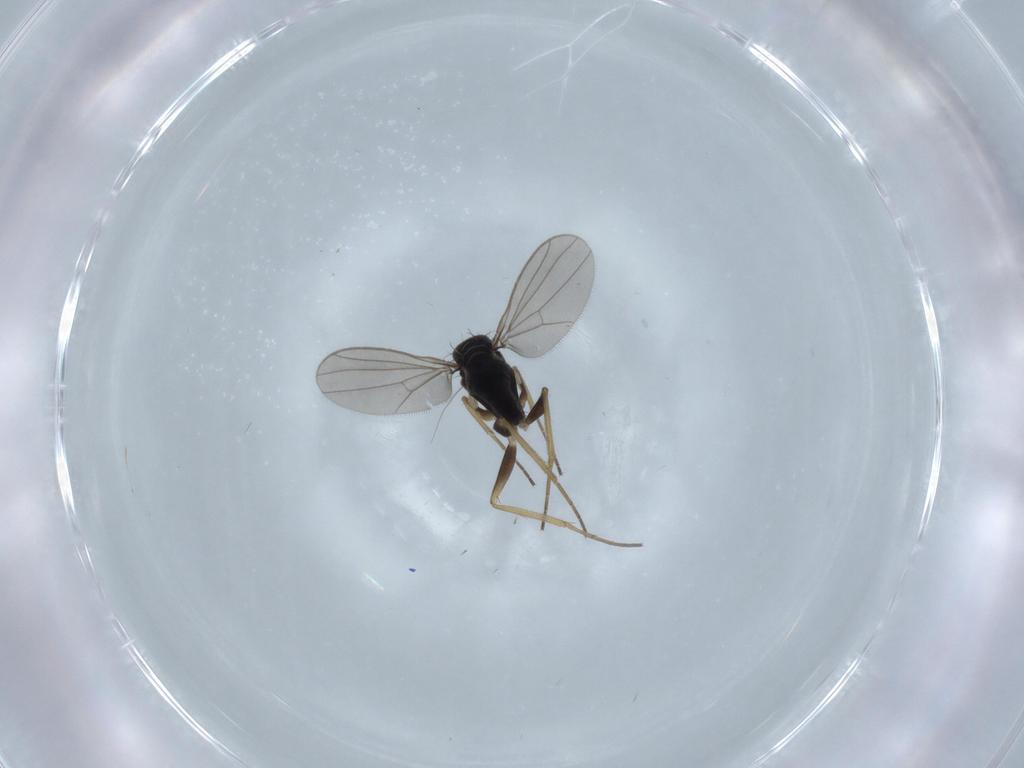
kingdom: Animalia
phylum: Arthropoda
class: Insecta
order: Diptera
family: Dolichopodidae
